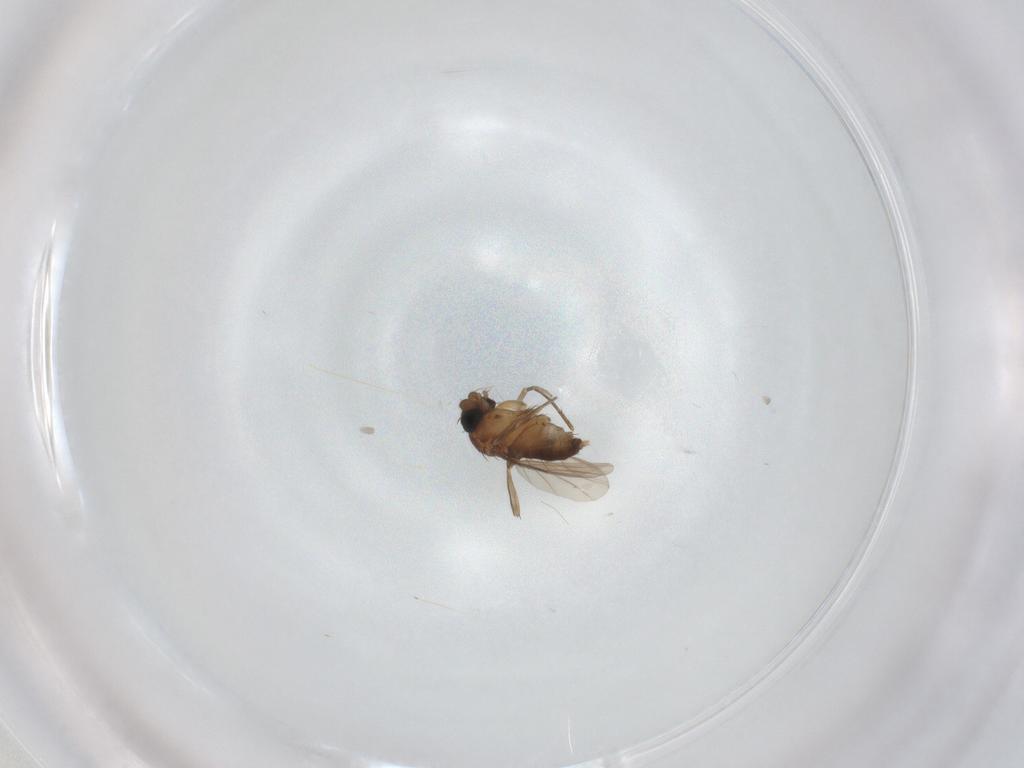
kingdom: Animalia
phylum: Arthropoda
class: Insecta
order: Diptera
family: Phoridae
